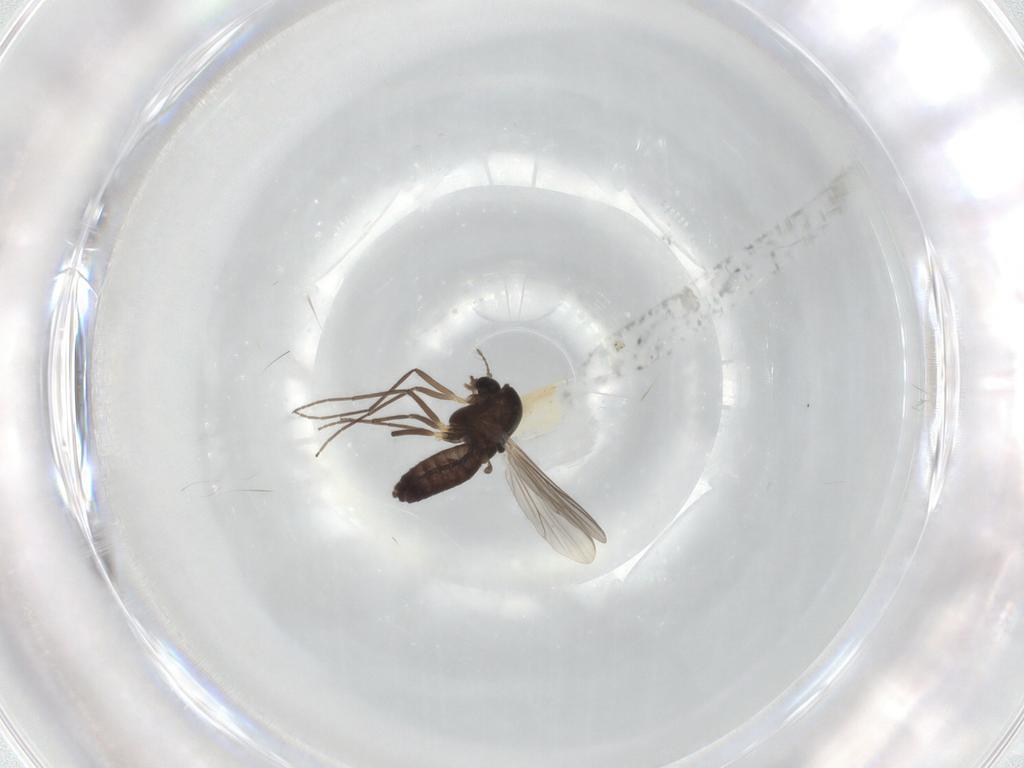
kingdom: Animalia
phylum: Arthropoda
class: Insecta
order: Diptera
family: Chironomidae
